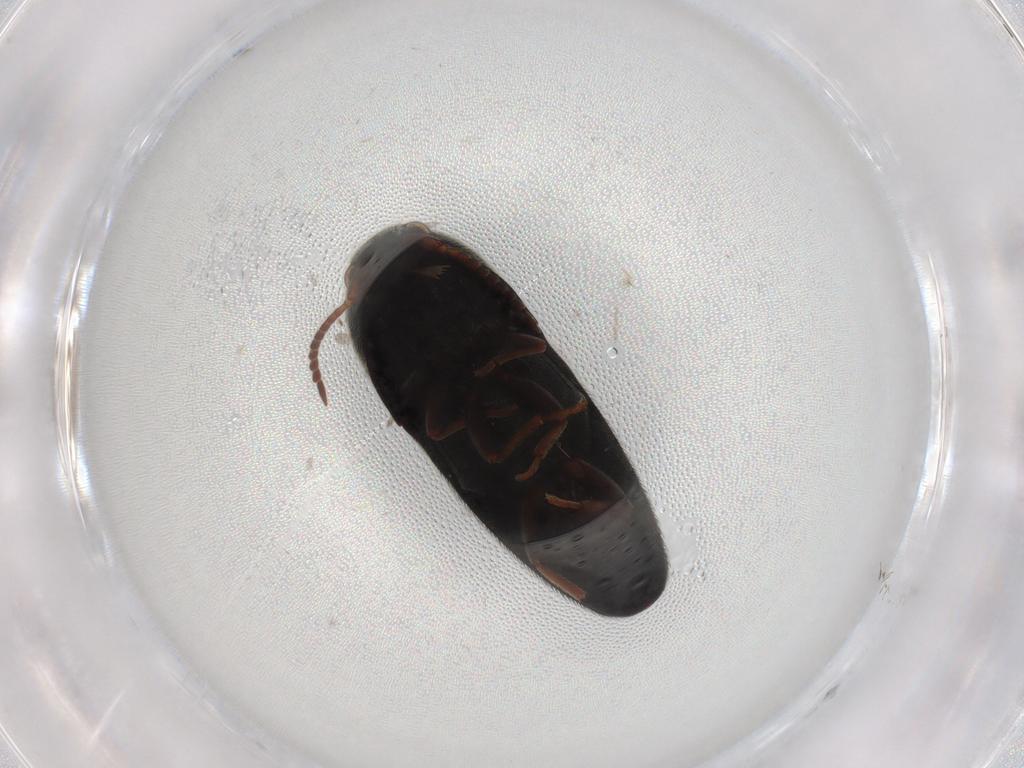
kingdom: Animalia
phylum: Arthropoda
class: Insecta
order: Coleoptera
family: Eucnemidae
